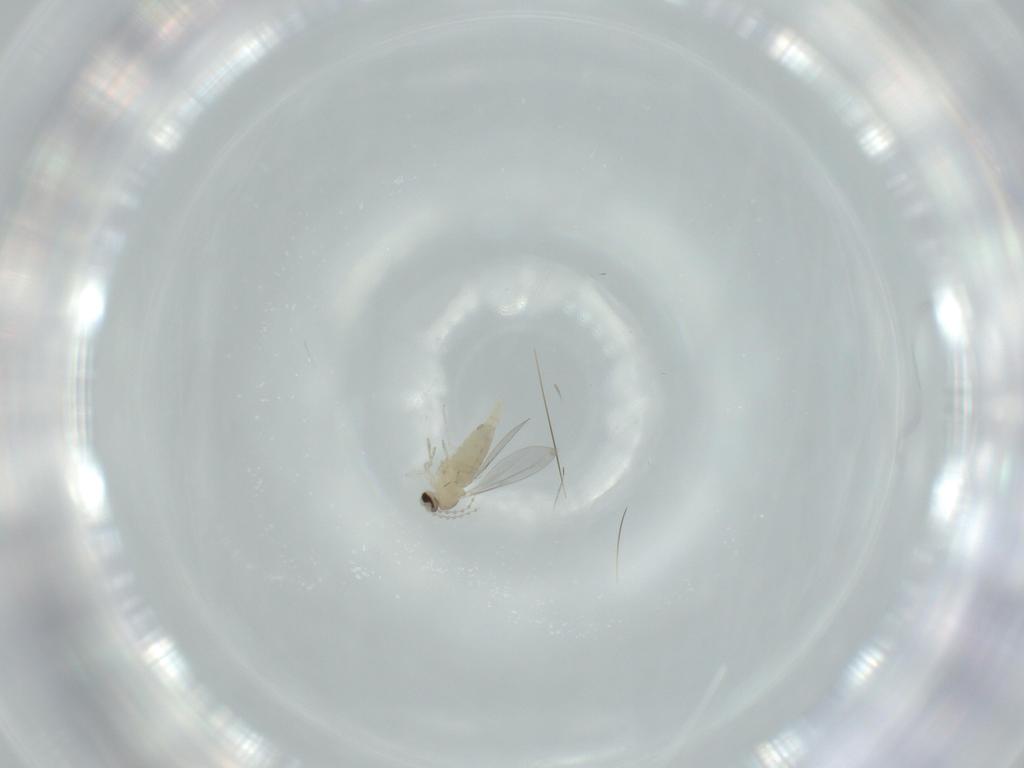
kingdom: Animalia
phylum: Arthropoda
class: Insecta
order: Diptera
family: Cecidomyiidae
